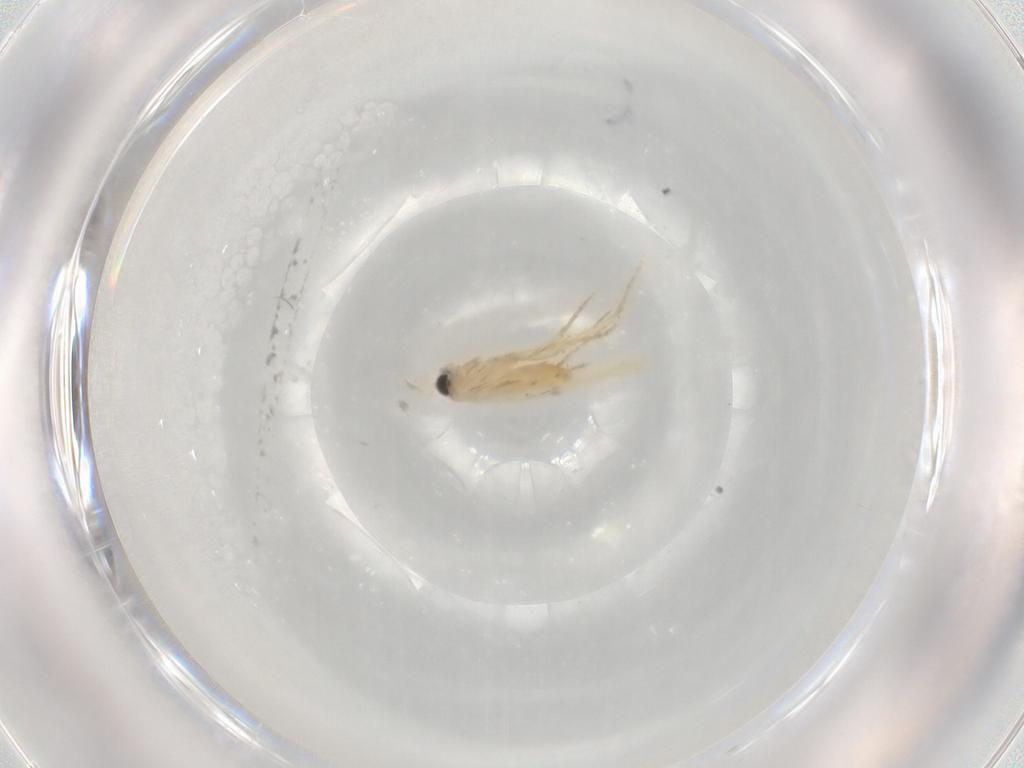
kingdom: Animalia
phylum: Arthropoda
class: Insecta
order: Lepidoptera
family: Nepticulidae
